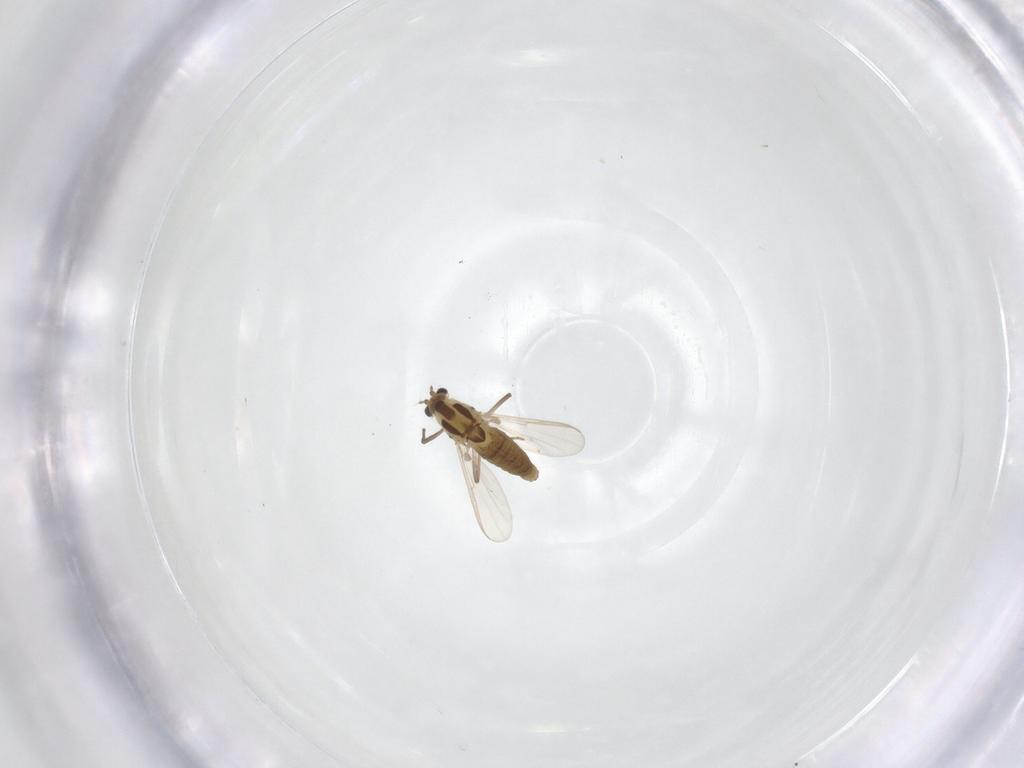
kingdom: Animalia
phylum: Arthropoda
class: Insecta
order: Diptera
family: Chironomidae
